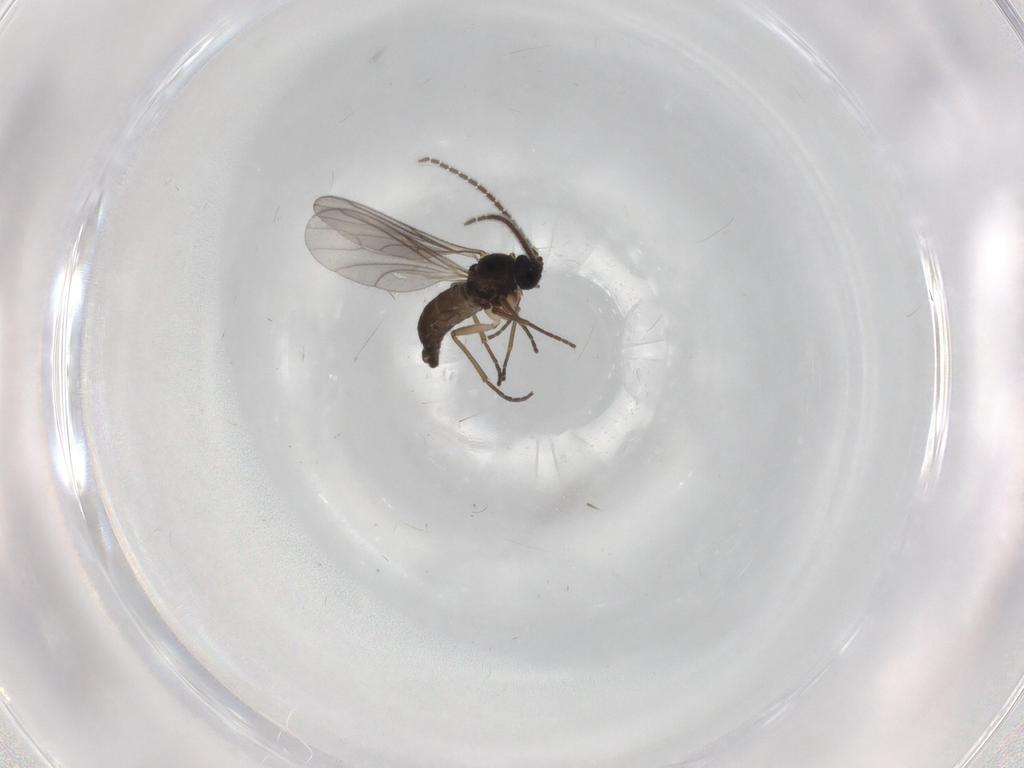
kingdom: Animalia
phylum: Arthropoda
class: Insecta
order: Diptera
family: Sciaridae
